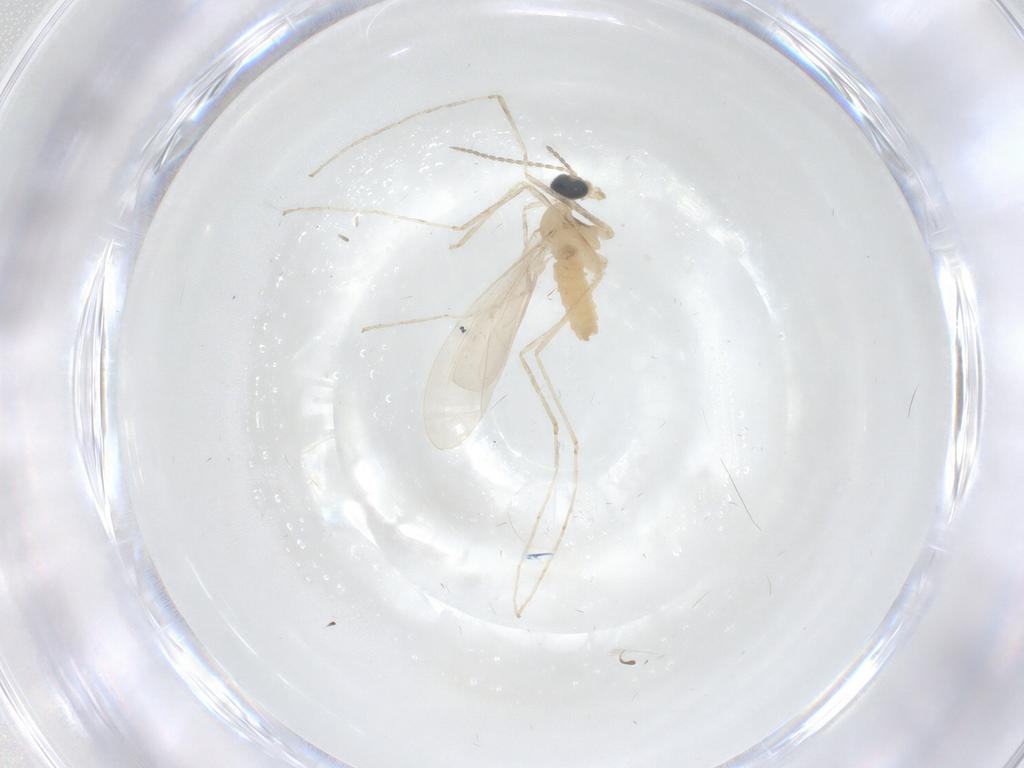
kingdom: Animalia
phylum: Arthropoda
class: Insecta
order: Diptera
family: Cecidomyiidae
